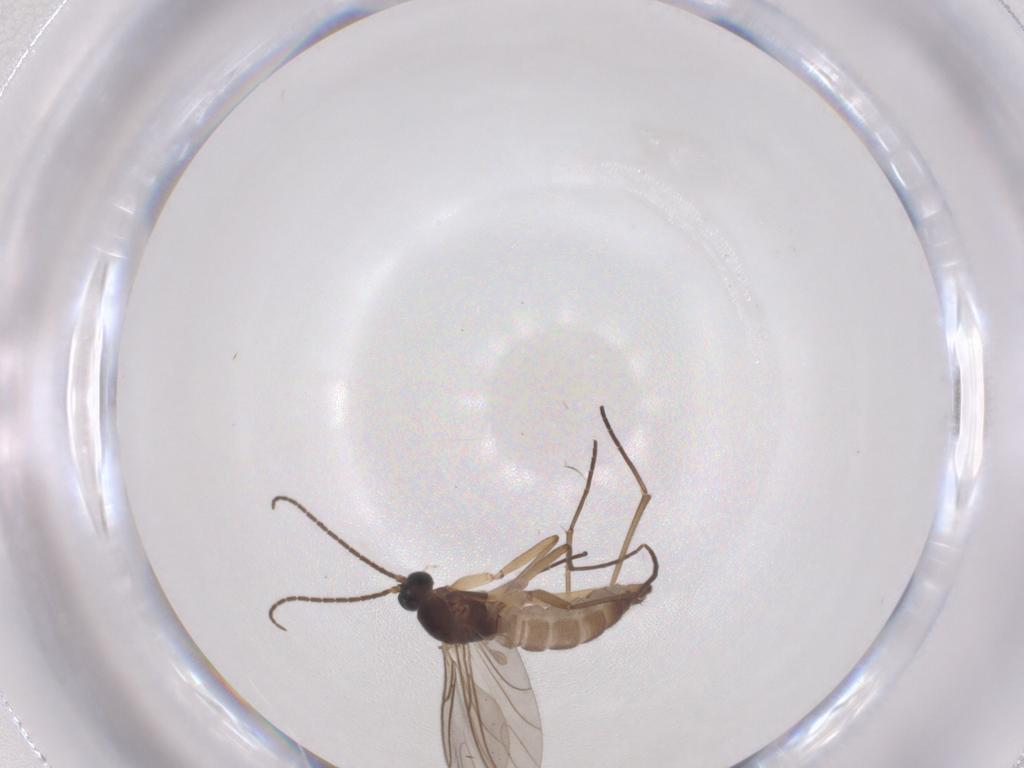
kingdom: Animalia
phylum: Arthropoda
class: Insecta
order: Diptera
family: Sciaridae
